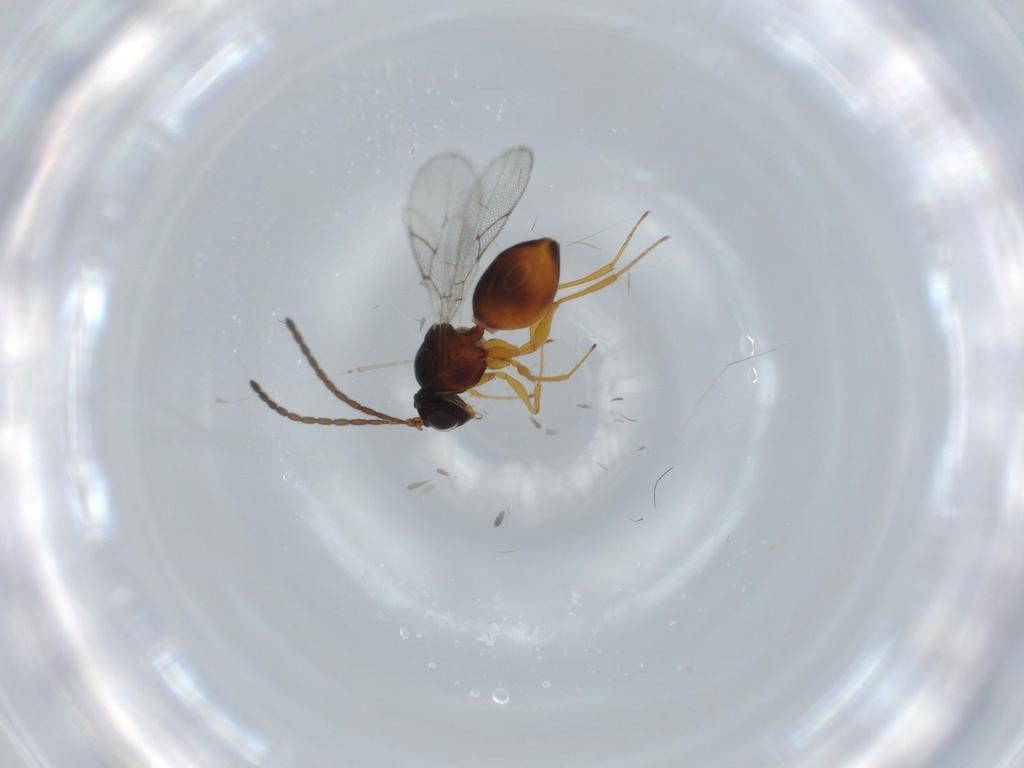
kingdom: Animalia
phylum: Arthropoda
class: Insecta
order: Hymenoptera
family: Figitidae
